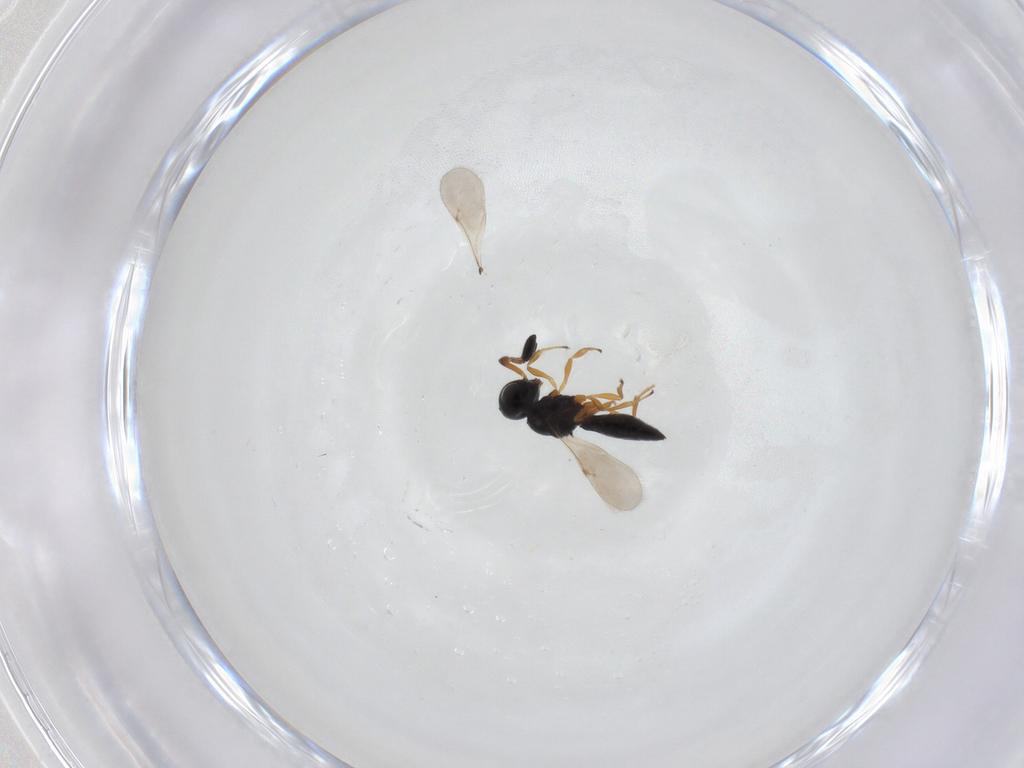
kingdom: Animalia
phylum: Arthropoda
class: Insecta
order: Hymenoptera
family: Scelionidae
